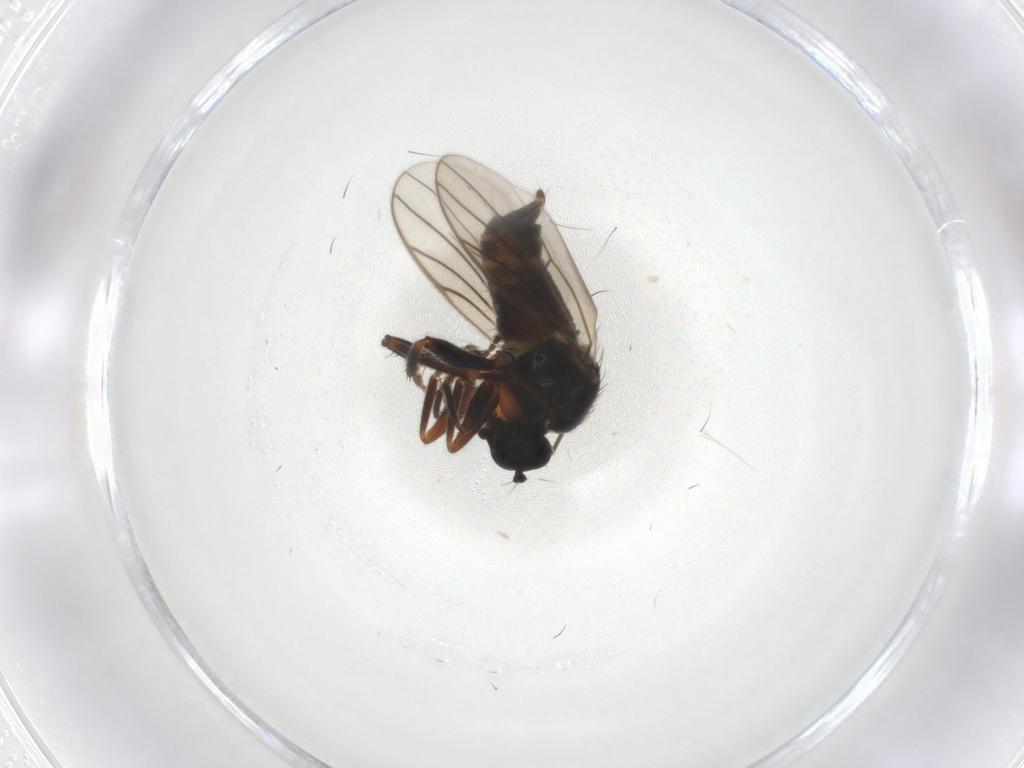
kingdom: Animalia
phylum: Arthropoda
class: Insecta
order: Diptera
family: Phoridae
